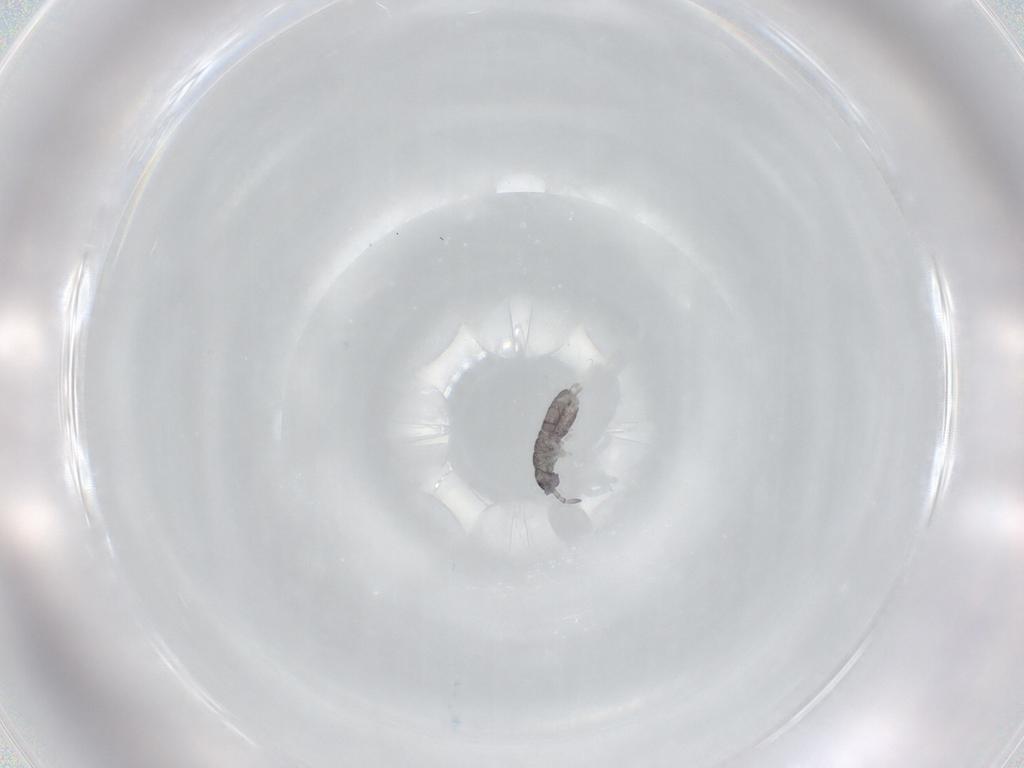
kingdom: Animalia
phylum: Arthropoda
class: Collembola
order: Entomobryomorpha
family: Isotomidae
